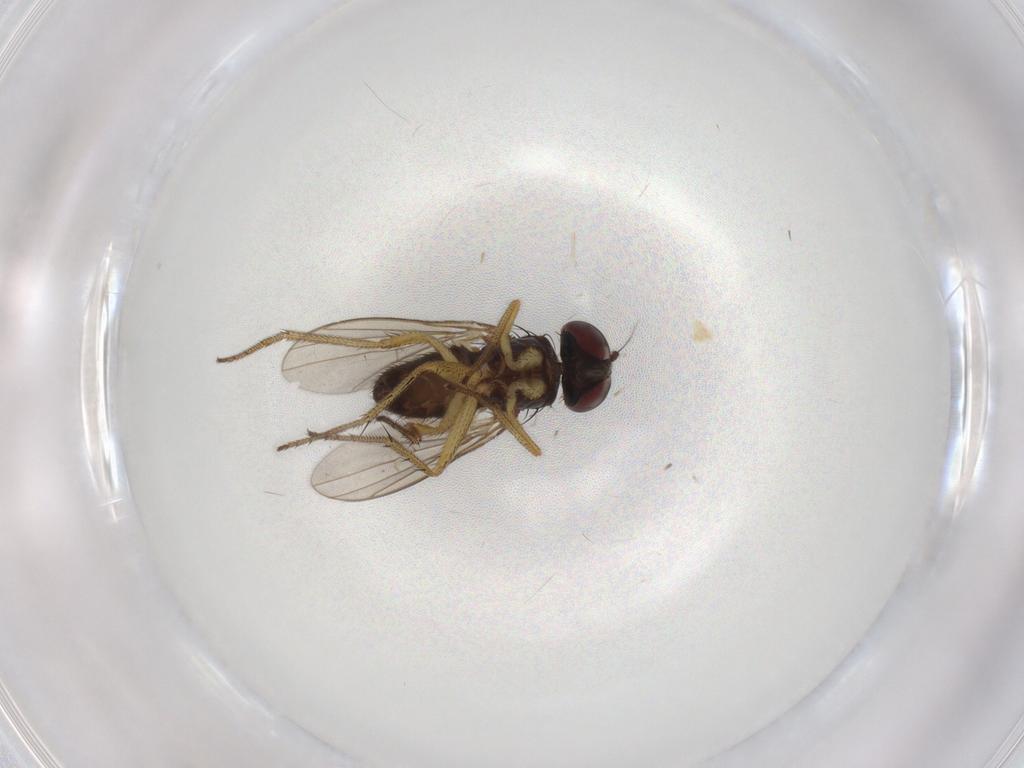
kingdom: Animalia
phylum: Arthropoda
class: Insecta
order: Diptera
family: Chironomidae
